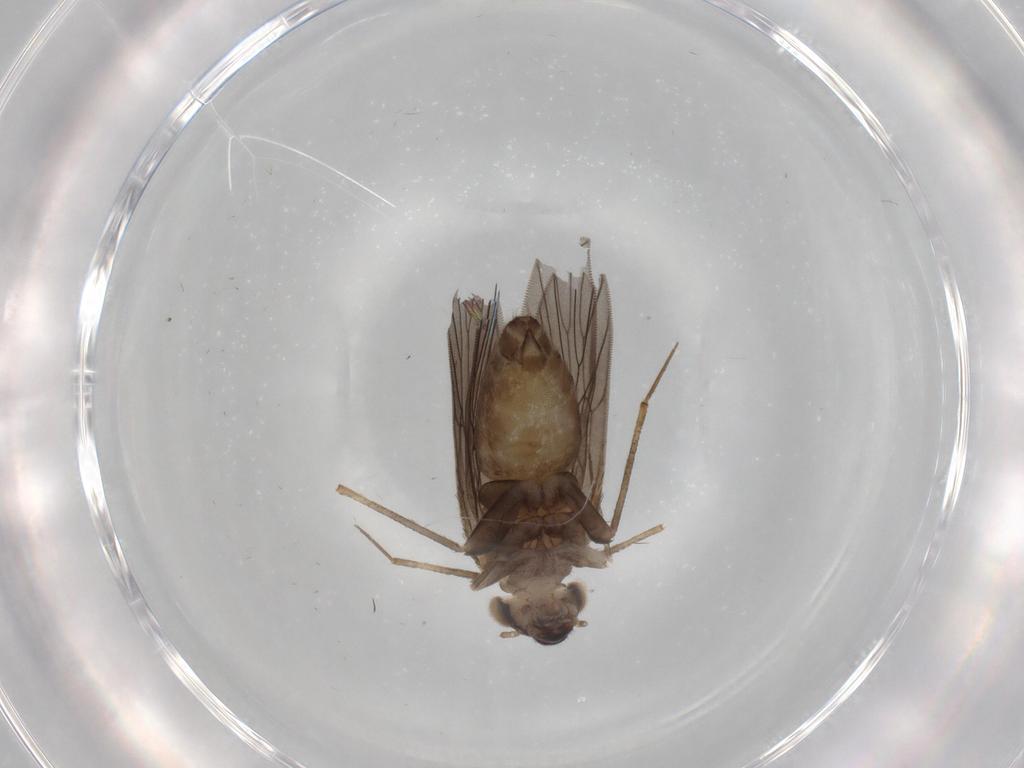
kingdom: Animalia
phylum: Arthropoda
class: Insecta
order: Psocodea
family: Lepidopsocidae
